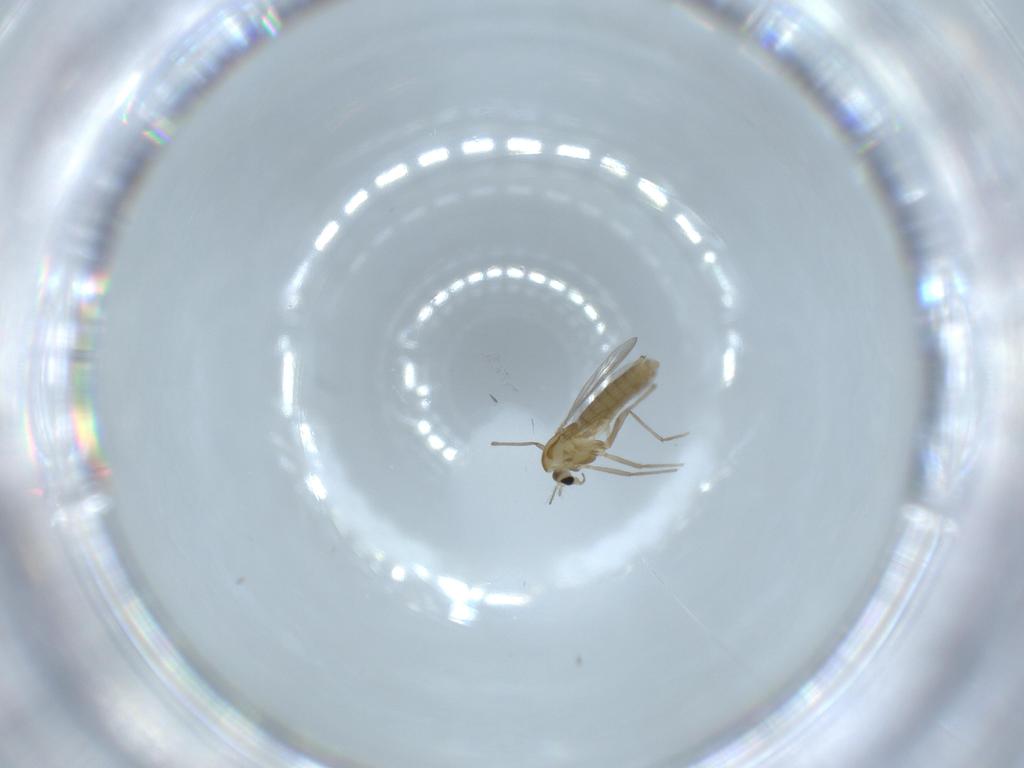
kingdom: Animalia
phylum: Arthropoda
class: Insecta
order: Diptera
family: Chironomidae
